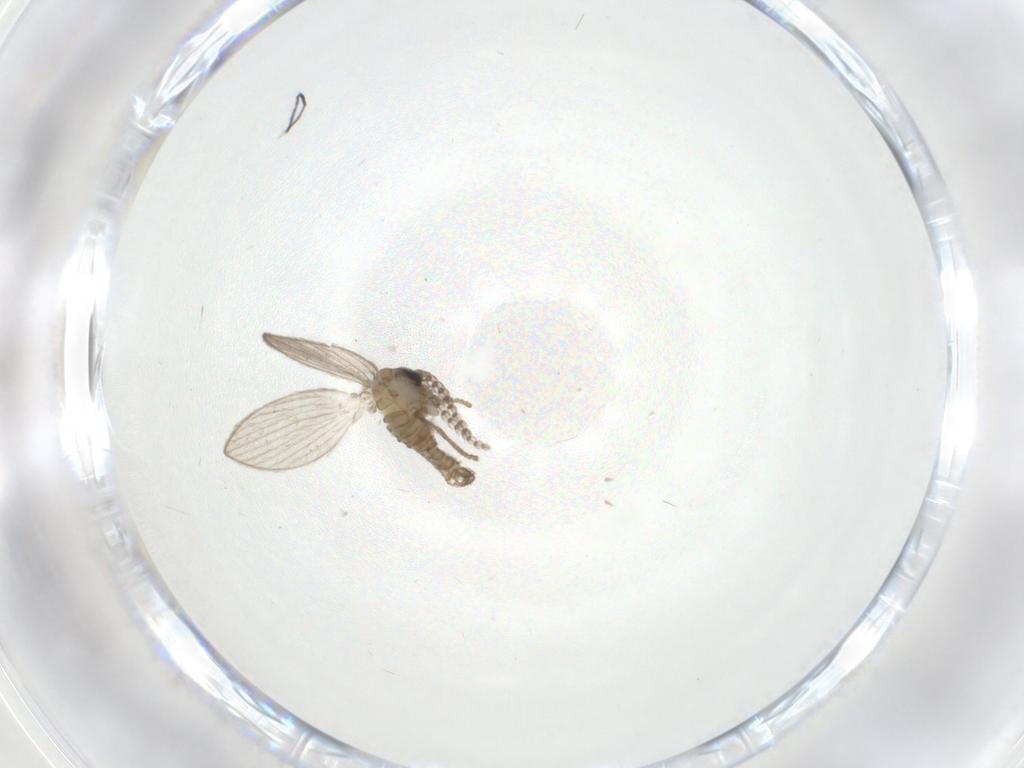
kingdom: Animalia
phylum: Arthropoda
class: Insecta
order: Diptera
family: Psychodidae
